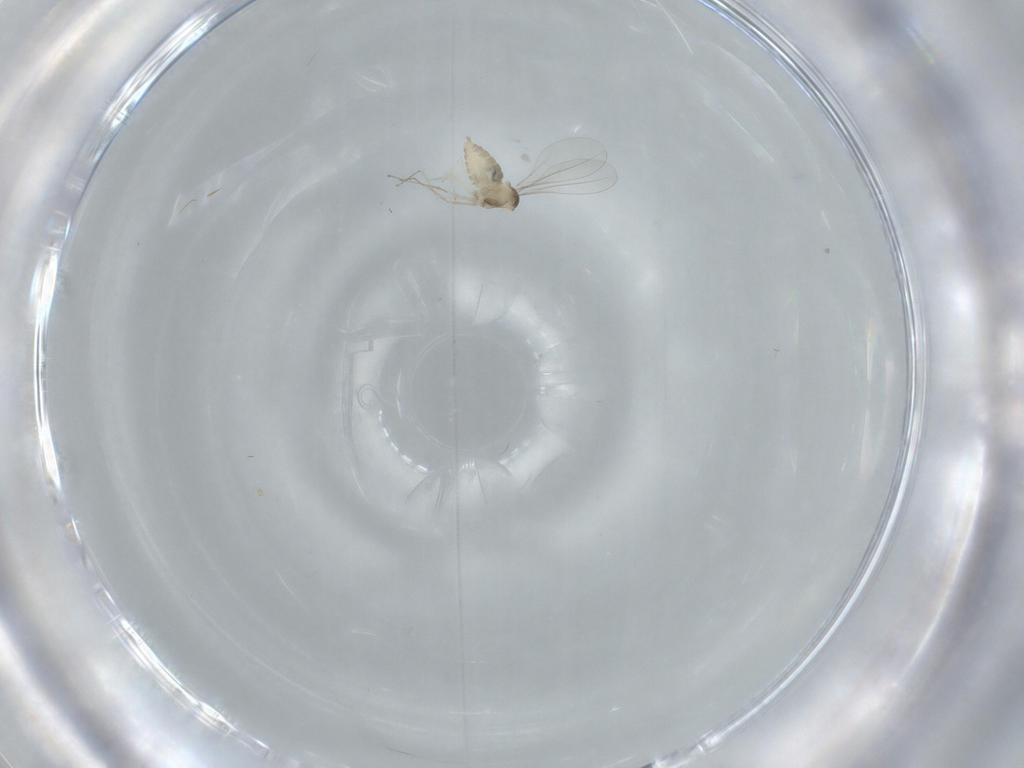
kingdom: Animalia
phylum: Arthropoda
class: Insecta
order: Diptera
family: Cecidomyiidae
